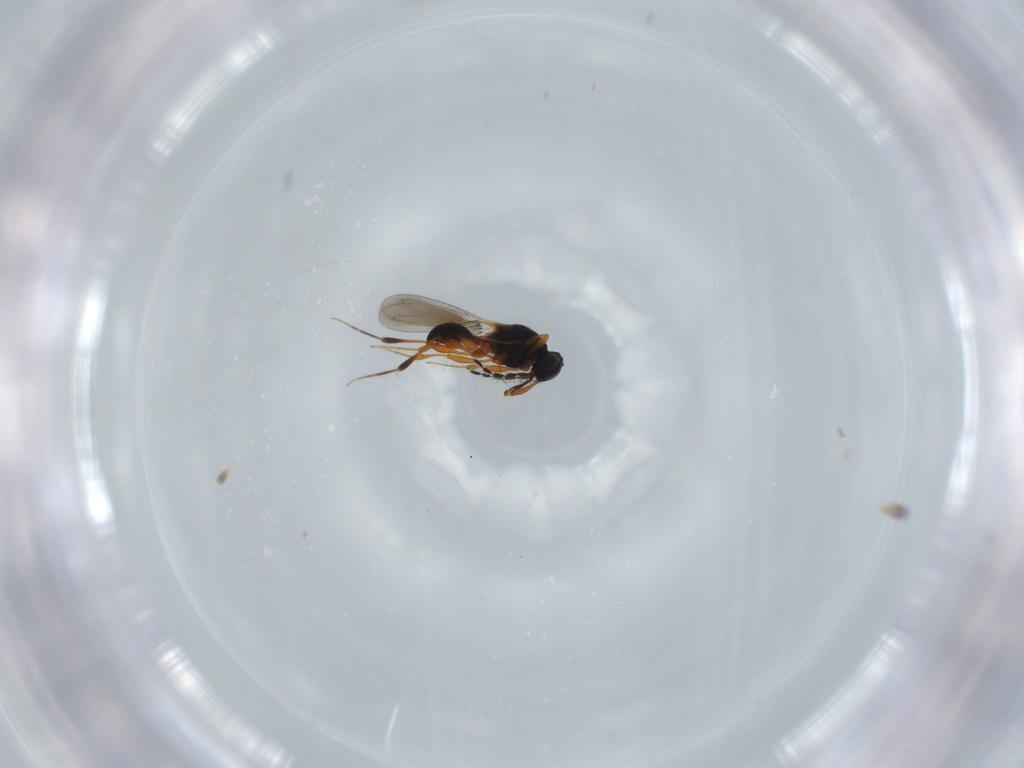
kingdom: Animalia
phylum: Arthropoda
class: Insecta
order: Hymenoptera
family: Platygastridae
